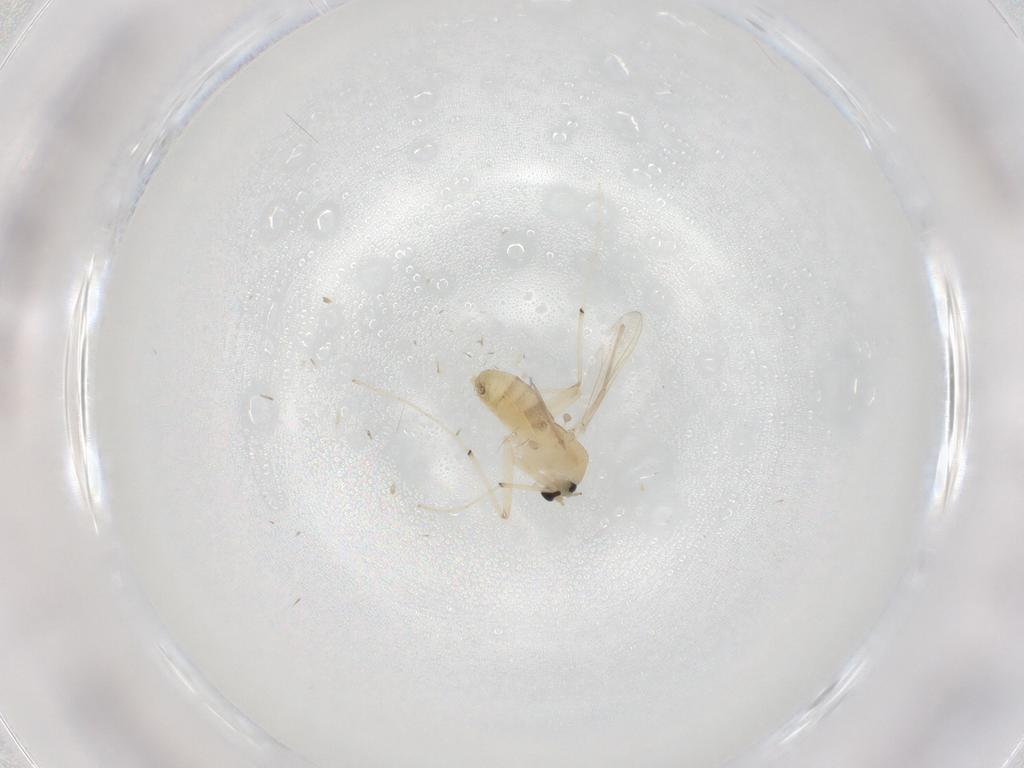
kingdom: Animalia
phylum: Arthropoda
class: Insecta
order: Diptera
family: Chironomidae
